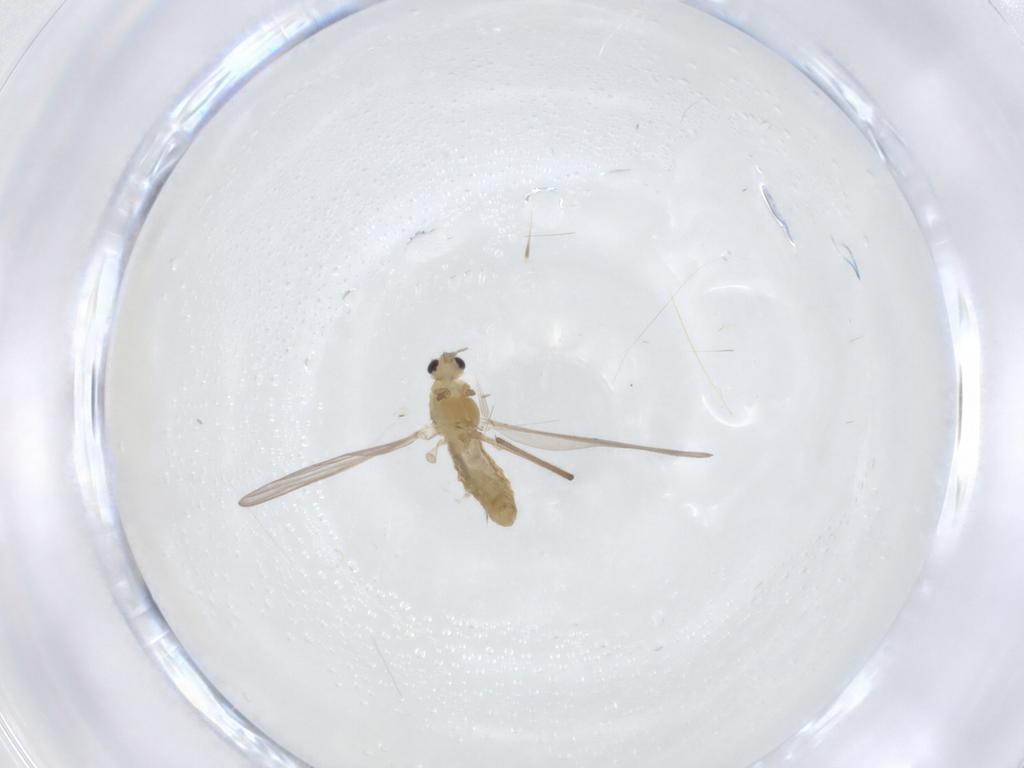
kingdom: Animalia
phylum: Arthropoda
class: Insecta
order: Diptera
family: Chironomidae
